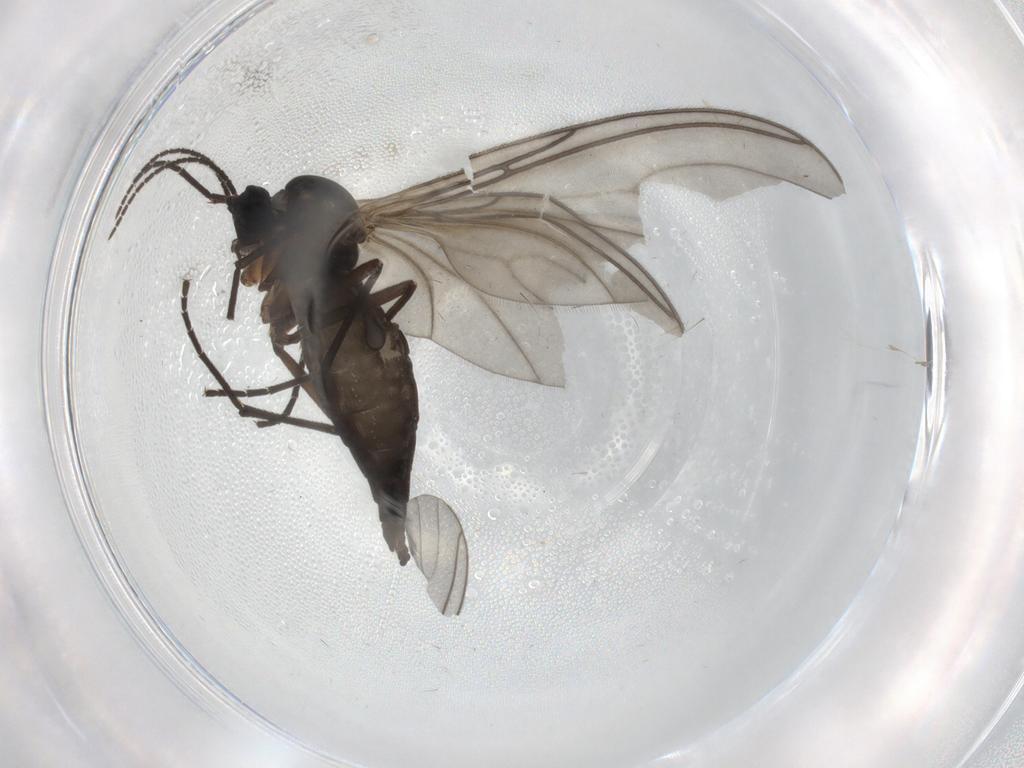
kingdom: Animalia
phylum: Arthropoda
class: Insecta
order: Diptera
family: Sciaridae
